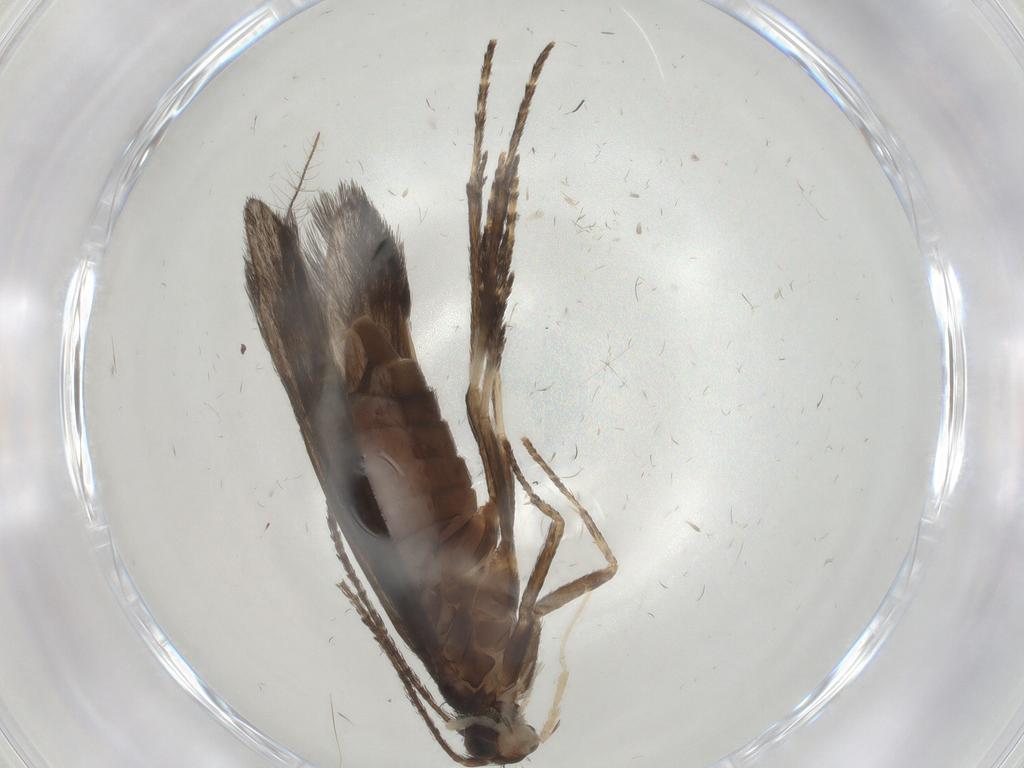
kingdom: Animalia
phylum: Arthropoda
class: Insecta
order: Trichoptera
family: Xiphocentronidae
